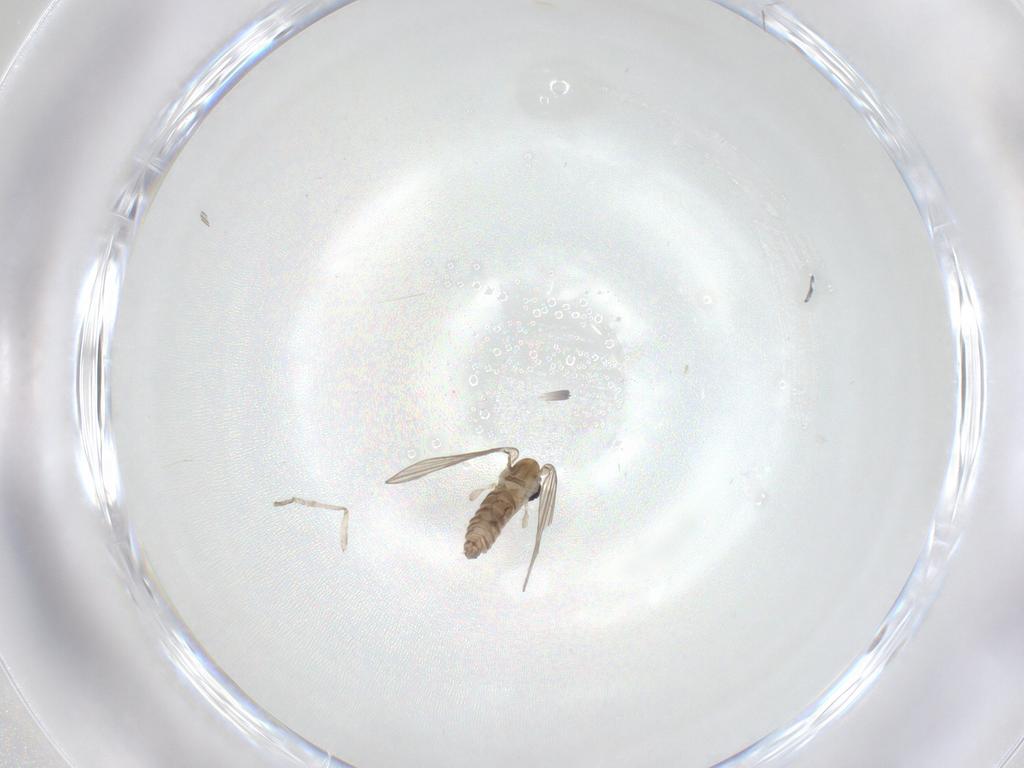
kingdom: Animalia
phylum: Arthropoda
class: Insecta
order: Diptera
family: Psychodidae
